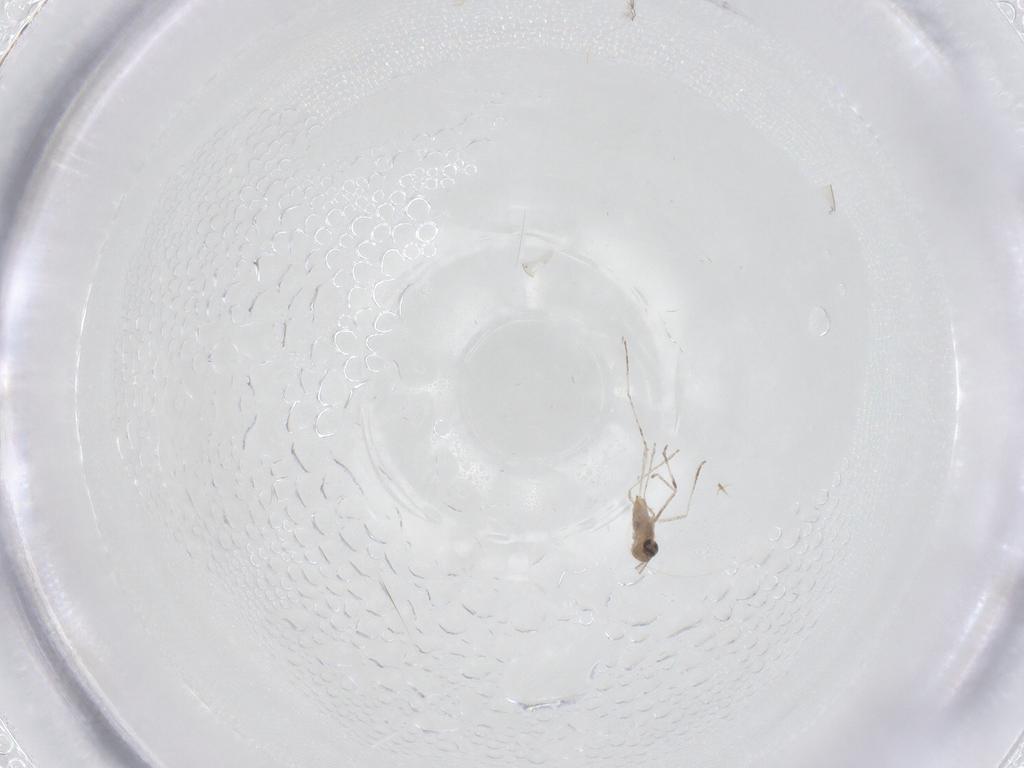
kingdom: Animalia
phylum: Arthropoda
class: Insecta
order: Diptera
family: Cecidomyiidae
